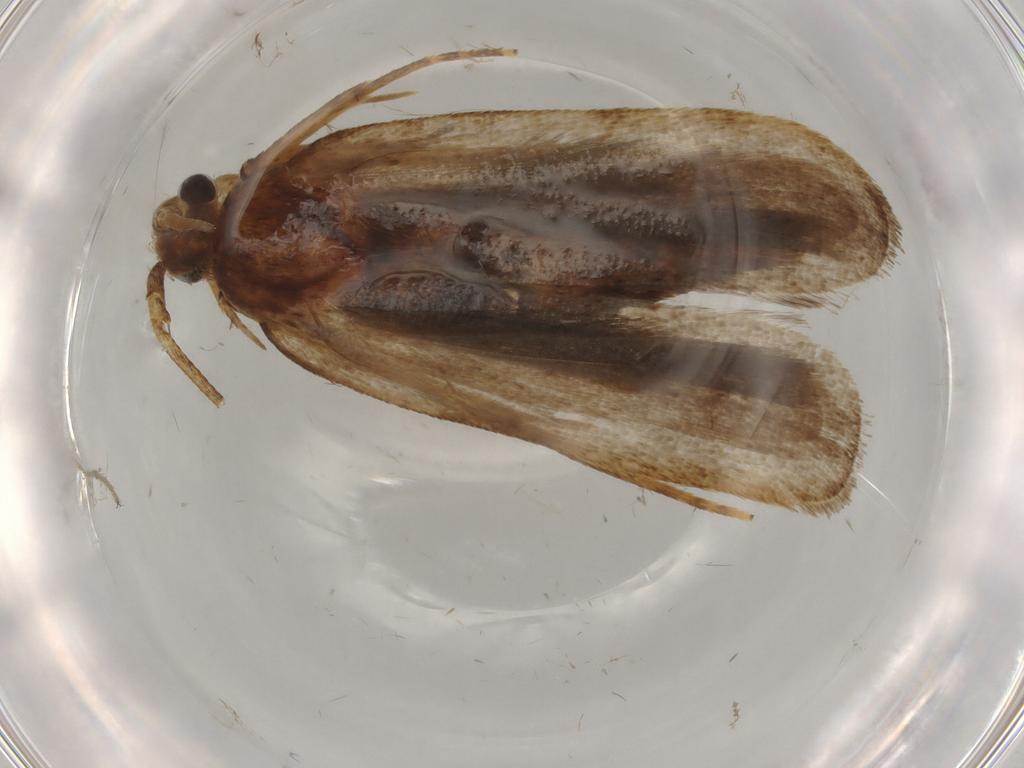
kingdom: Animalia
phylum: Arthropoda
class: Insecta
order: Lepidoptera
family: Autostichidae
